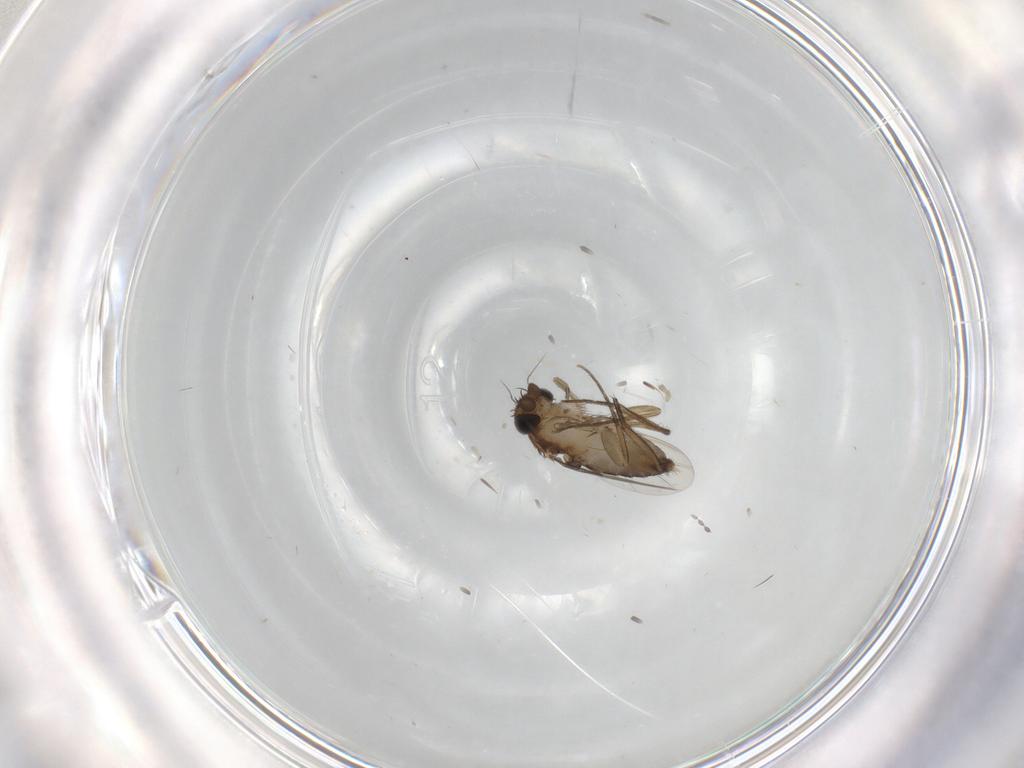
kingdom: Animalia
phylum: Arthropoda
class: Insecta
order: Diptera
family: Phoridae
